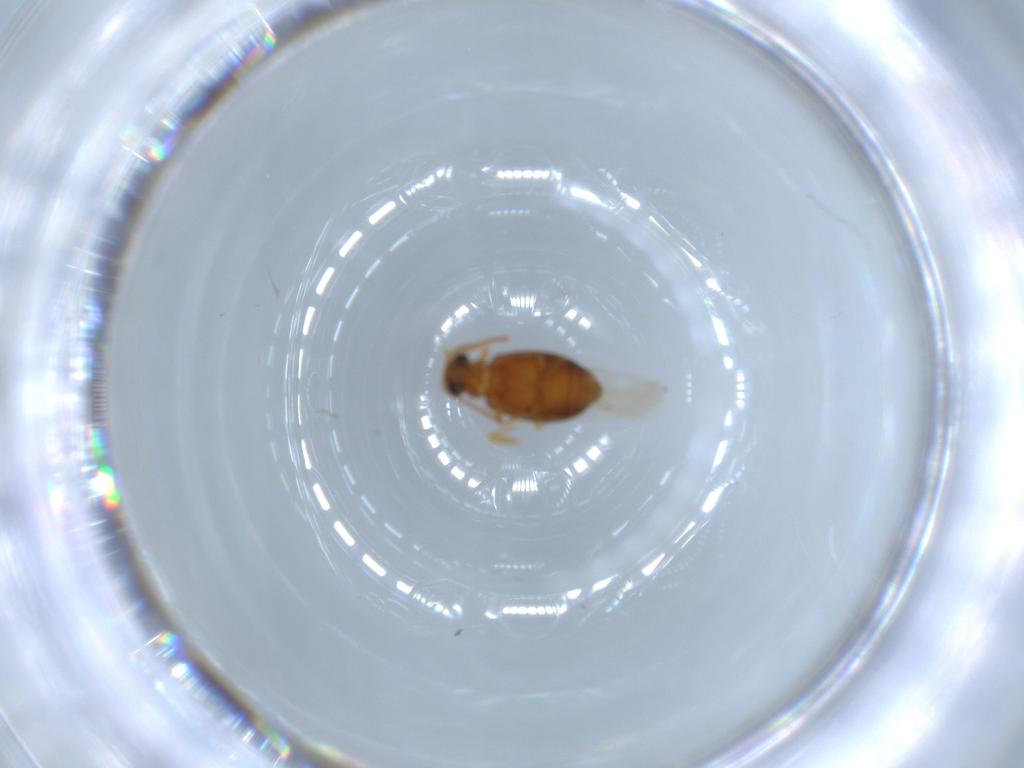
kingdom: Animalia
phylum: Arthropoda
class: Insecta
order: Coleoptera
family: Aderidae
